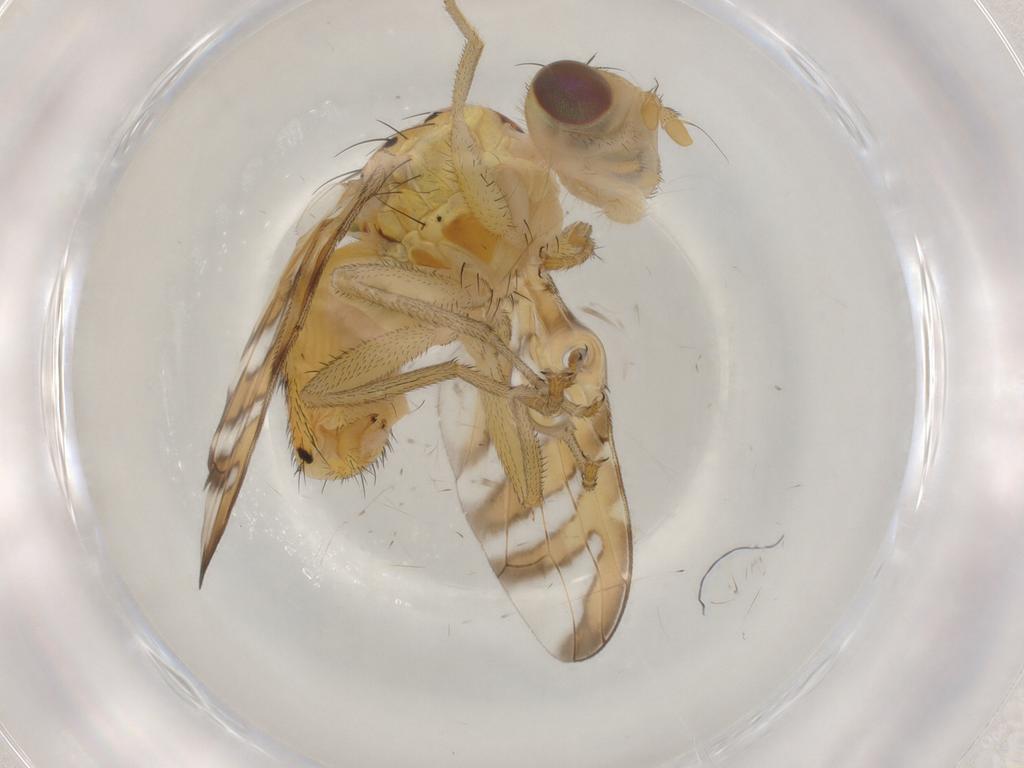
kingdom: Animalia
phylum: Arthropoda
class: Insecta
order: Diptera
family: Tephritidae
